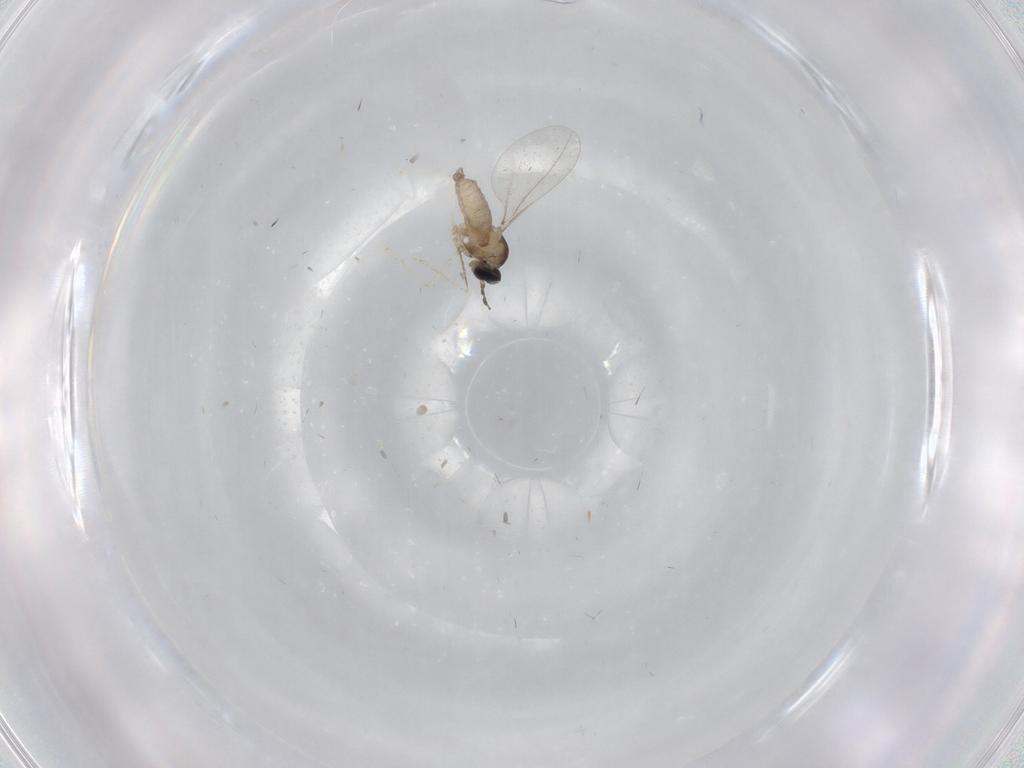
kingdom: Animalia
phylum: Arthropoda
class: Insecta
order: Diptera
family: Cecidomyiidae
